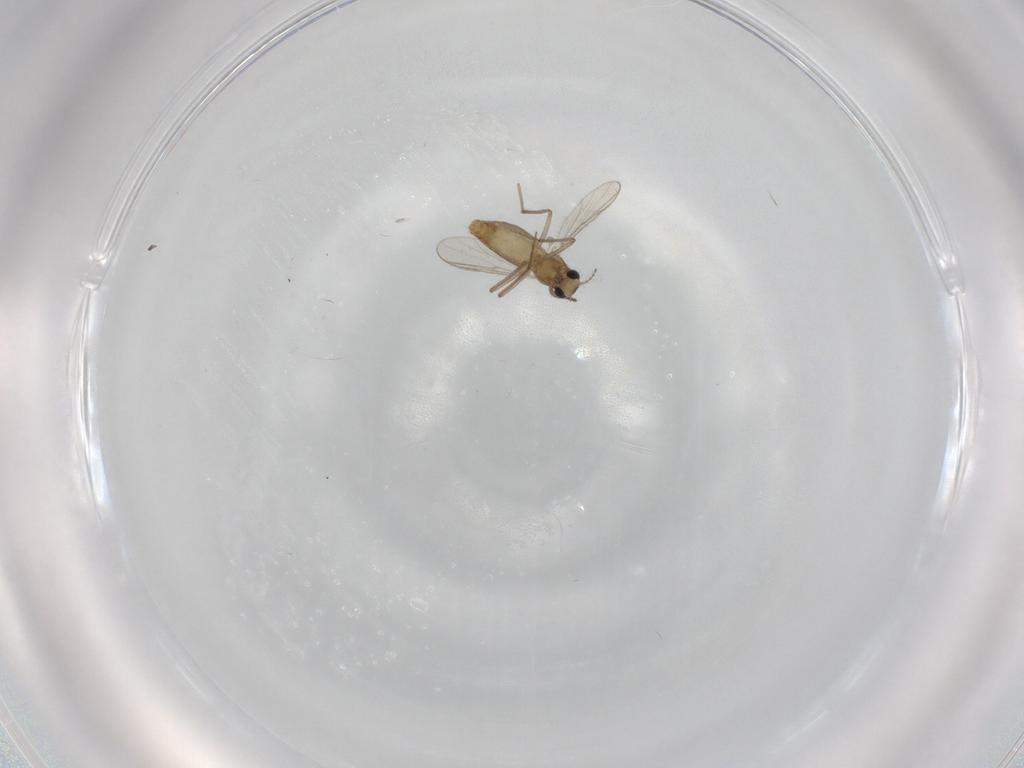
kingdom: Animalia
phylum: Arthropoda
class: Insecta
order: Diptera
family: Chironomidae
